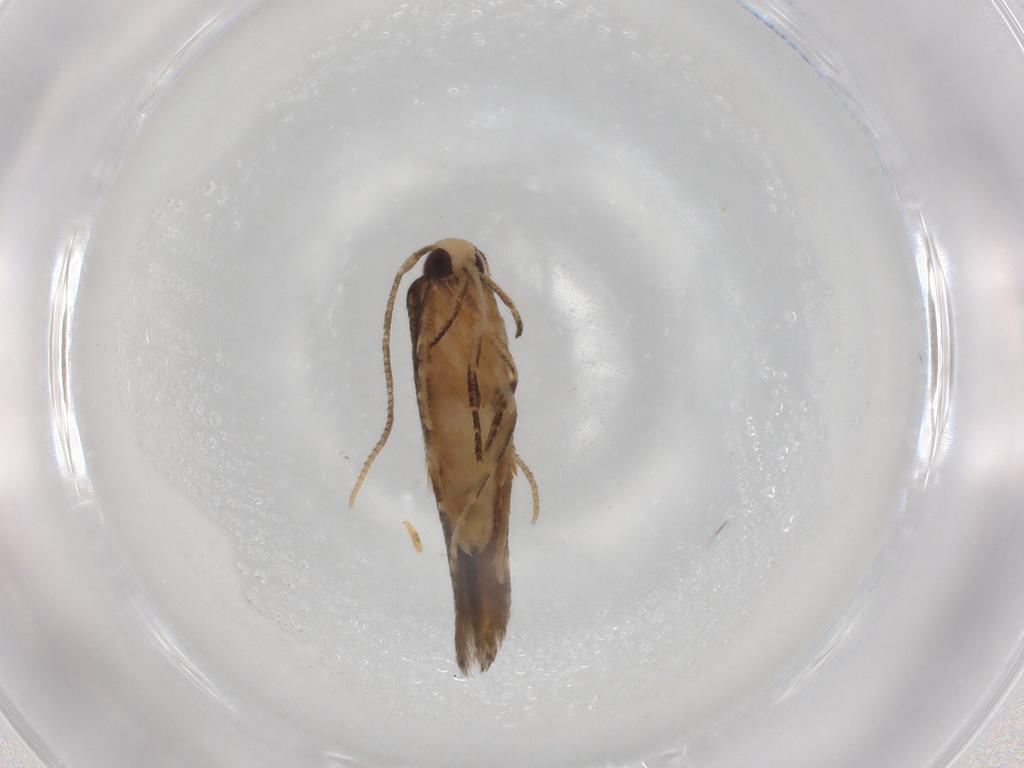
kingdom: Animalia
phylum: Arthropoda
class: Insecta
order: Lepidoptera
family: Cosmopterigidae
